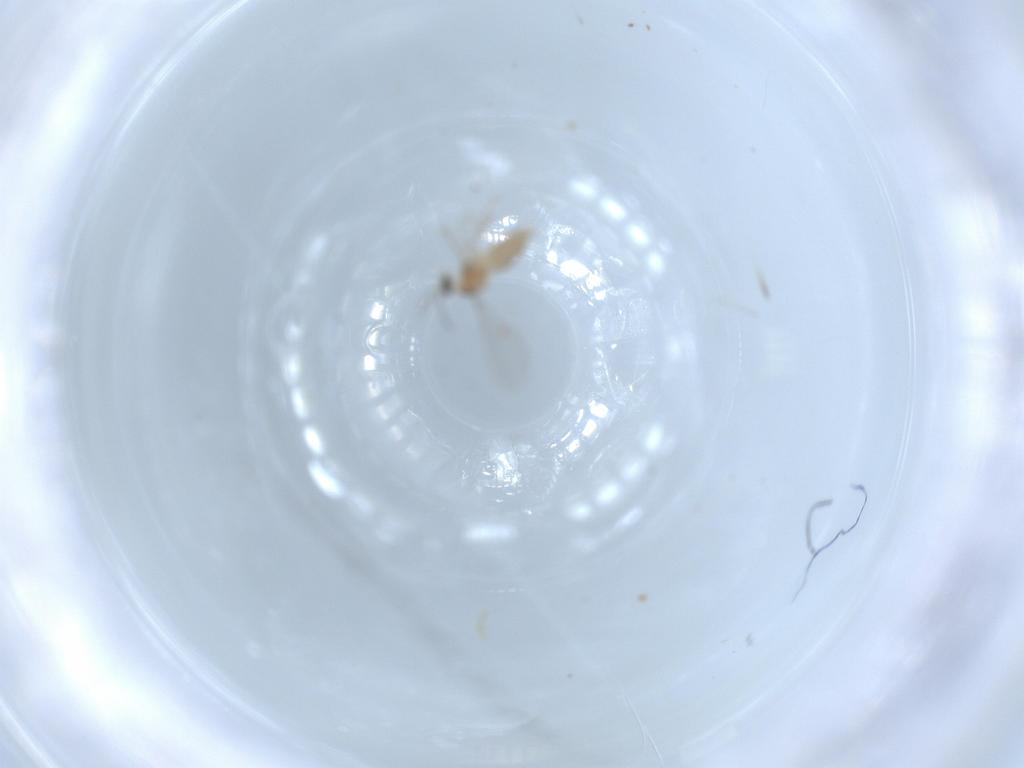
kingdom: Animalia
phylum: Arthropoda
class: Insecta
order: Diptera
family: Cecidomyiidae
